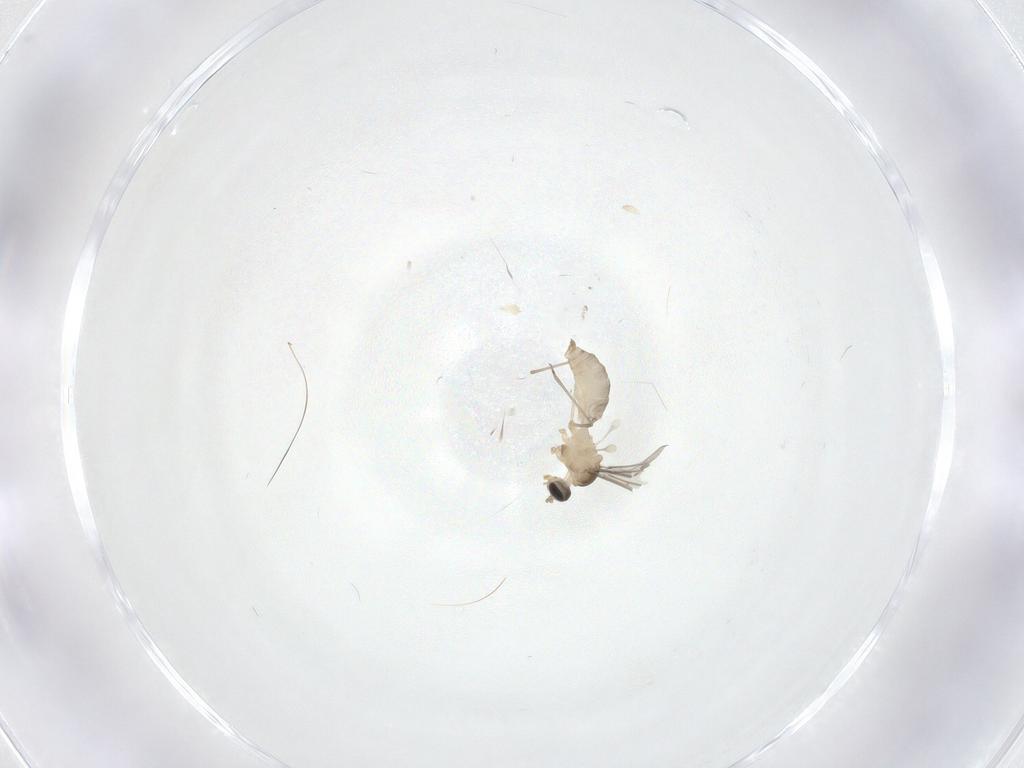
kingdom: Animalia
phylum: Arthropoda
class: Insecta
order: Diptera
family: Cecidomyiidae
